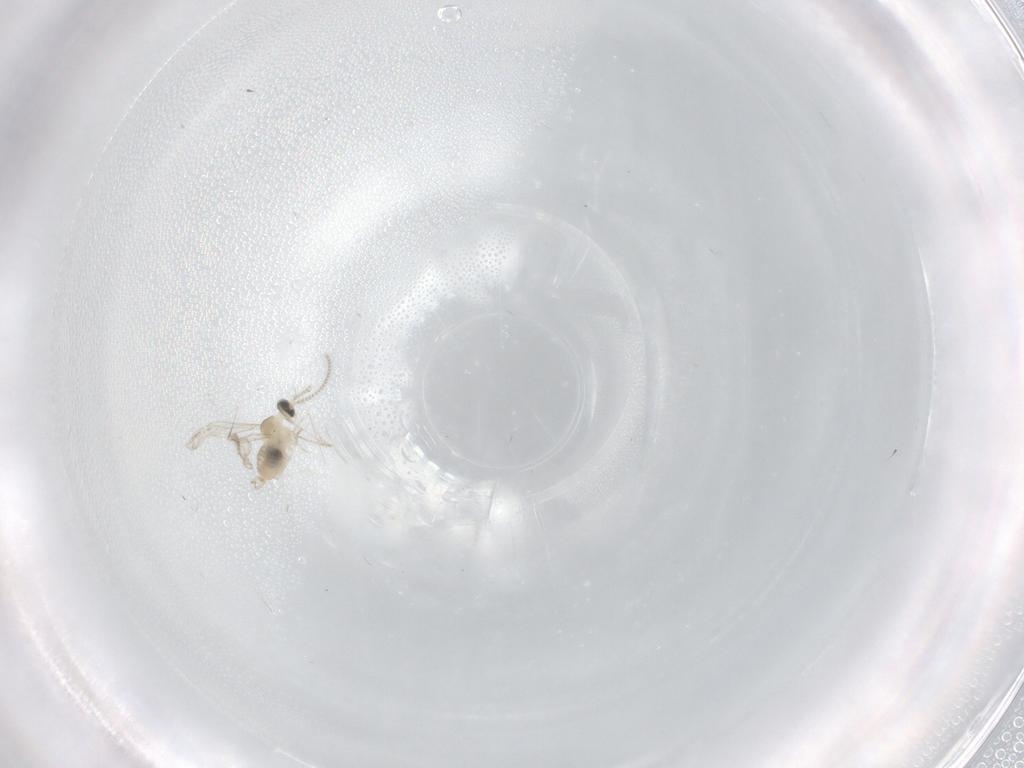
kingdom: Animalia
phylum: Arthropoda
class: Insecta
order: Diptera
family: Cecidomyiidae
